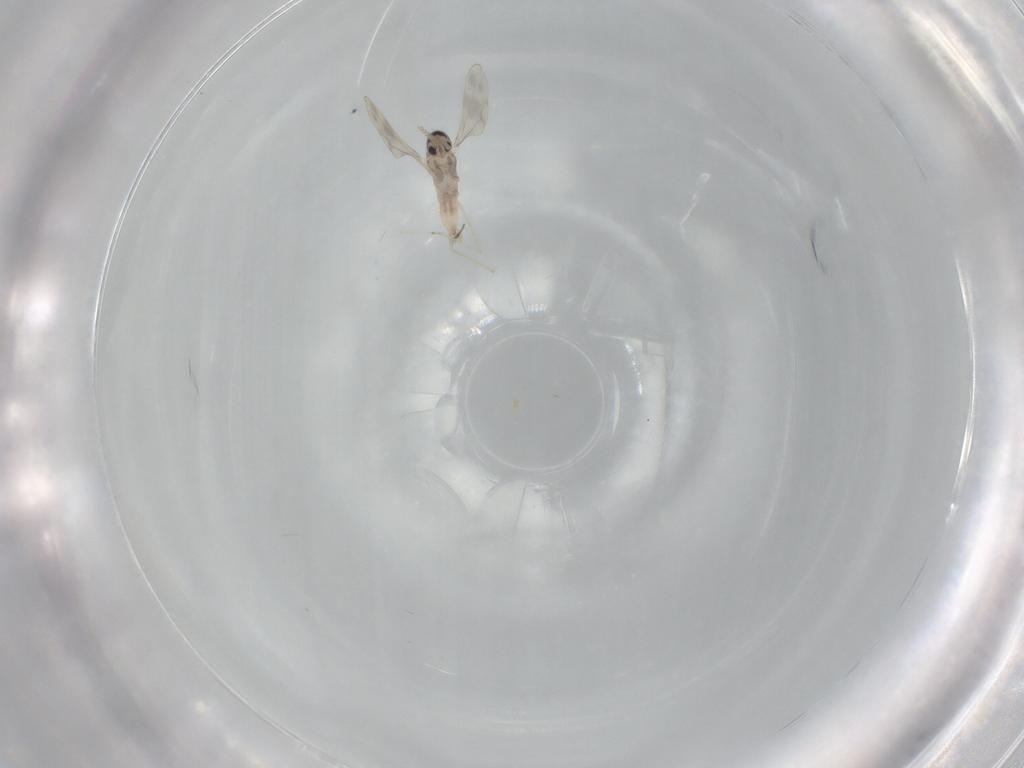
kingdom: Animalia
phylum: Arthropoda
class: Insecta
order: Diptera
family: Cecidomyiidae
